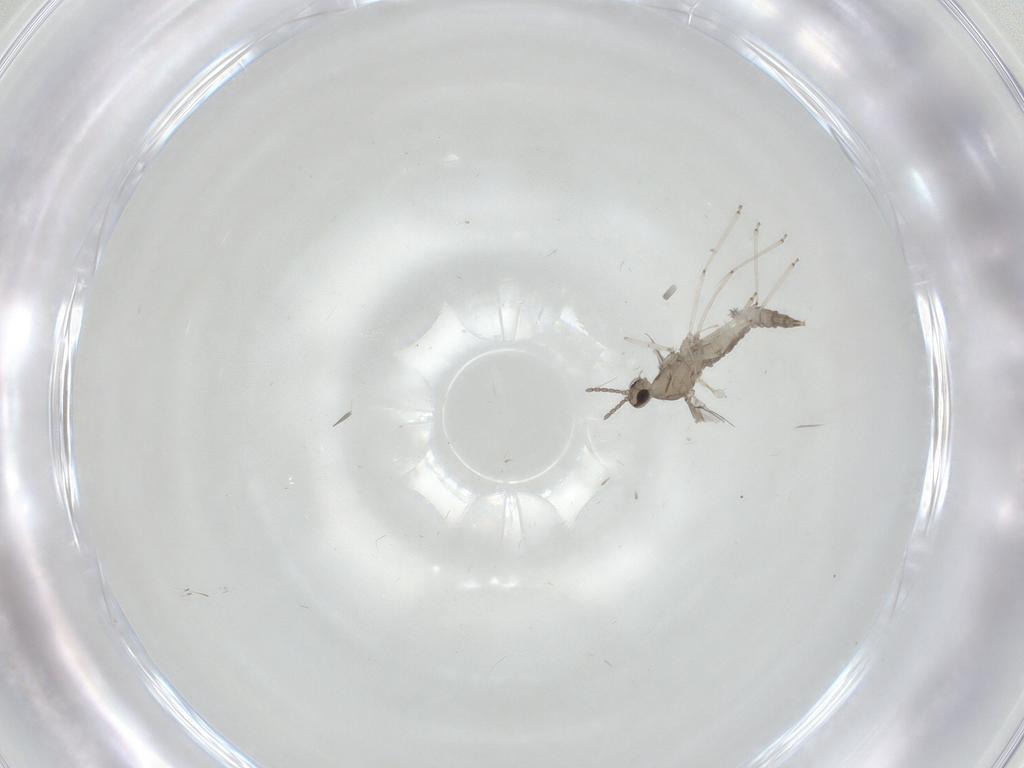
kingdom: Animalia
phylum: Arthropoda
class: Insecta
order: Diptera
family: Cecidomyiidae
